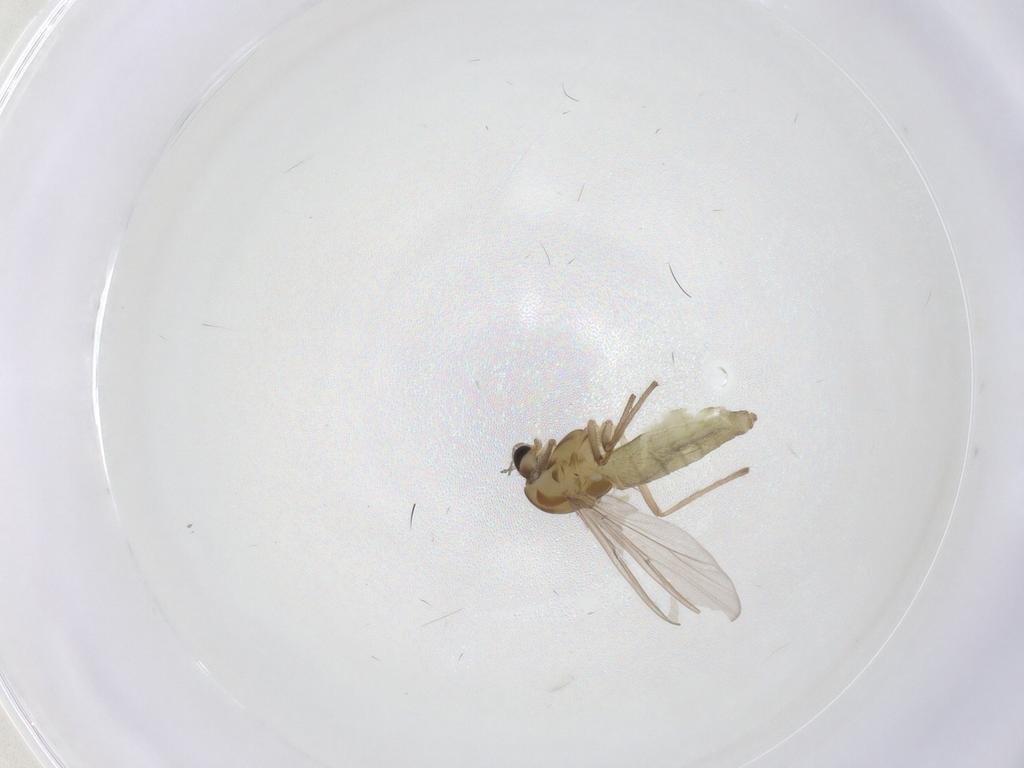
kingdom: Animalia
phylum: Arthropoda
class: Insecta
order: Diptera
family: Chironomidae
